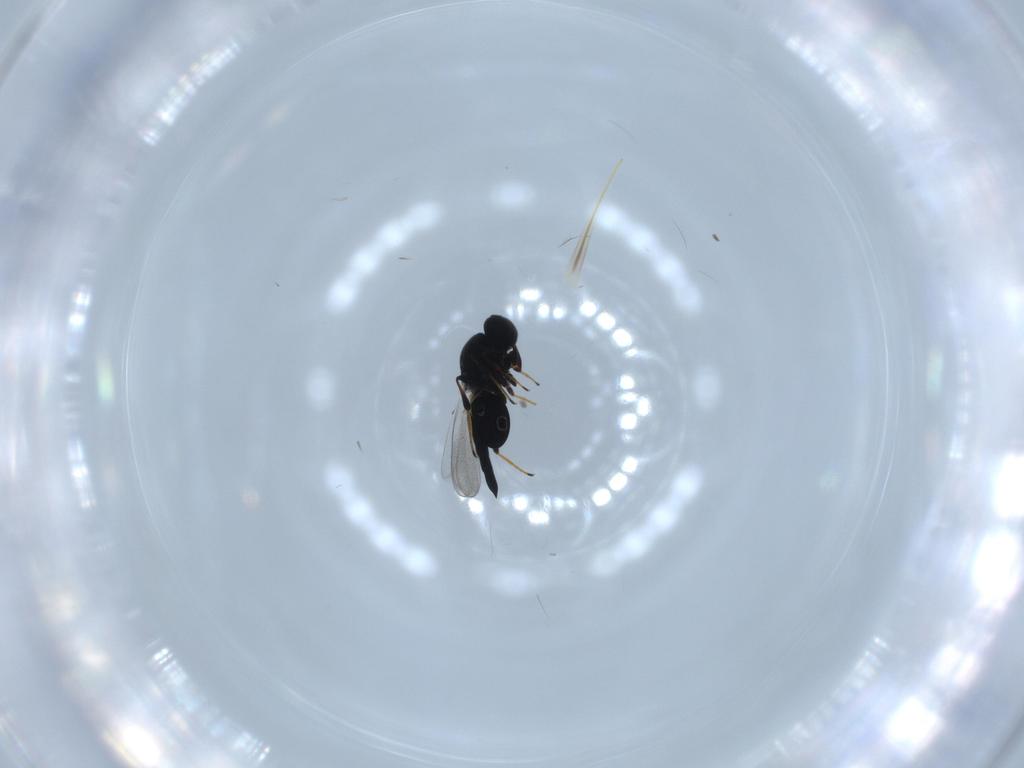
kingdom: Animalia
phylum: Arthropoda
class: Insecta
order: Hymenoptera
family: Platygastridae
